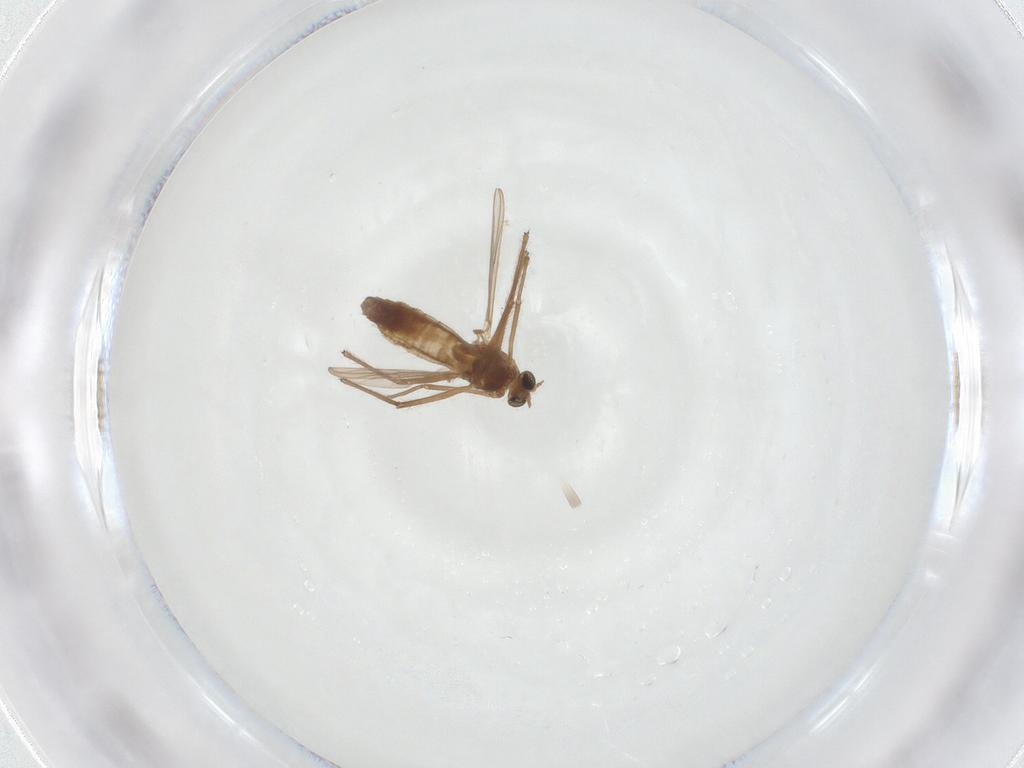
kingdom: Animalia
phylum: Arthropoda
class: Insecta
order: Diptera
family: Chironomidae
